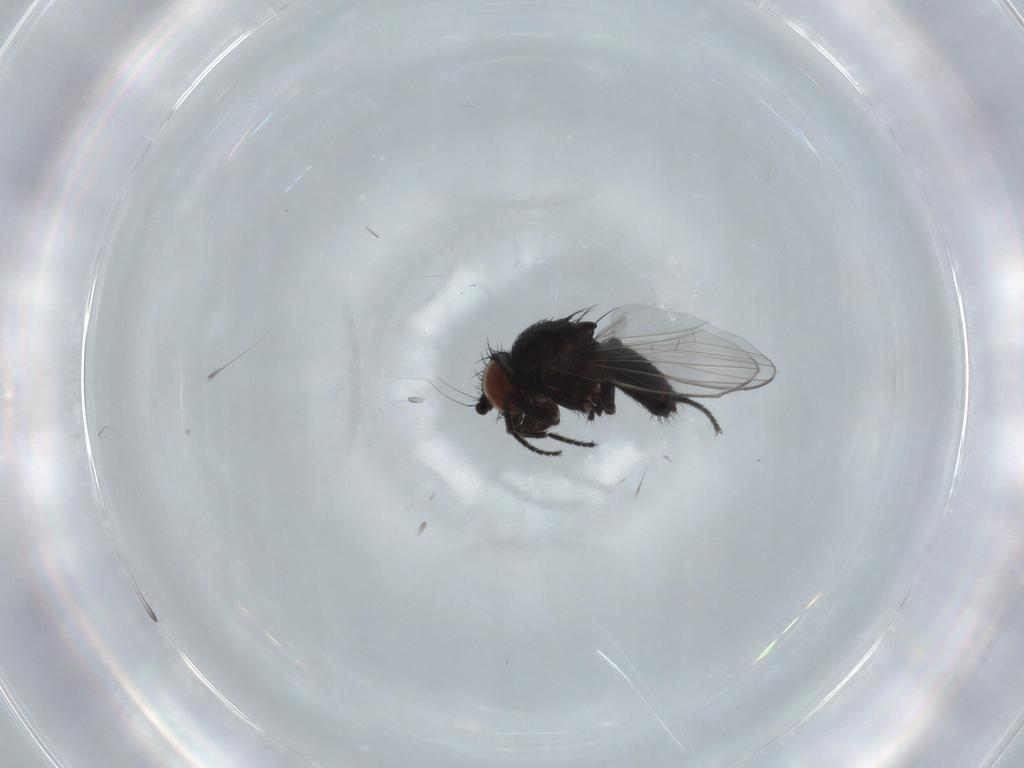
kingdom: Animalia
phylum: Arthropoda
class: Insecta
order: Diptera
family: Milichiidae
